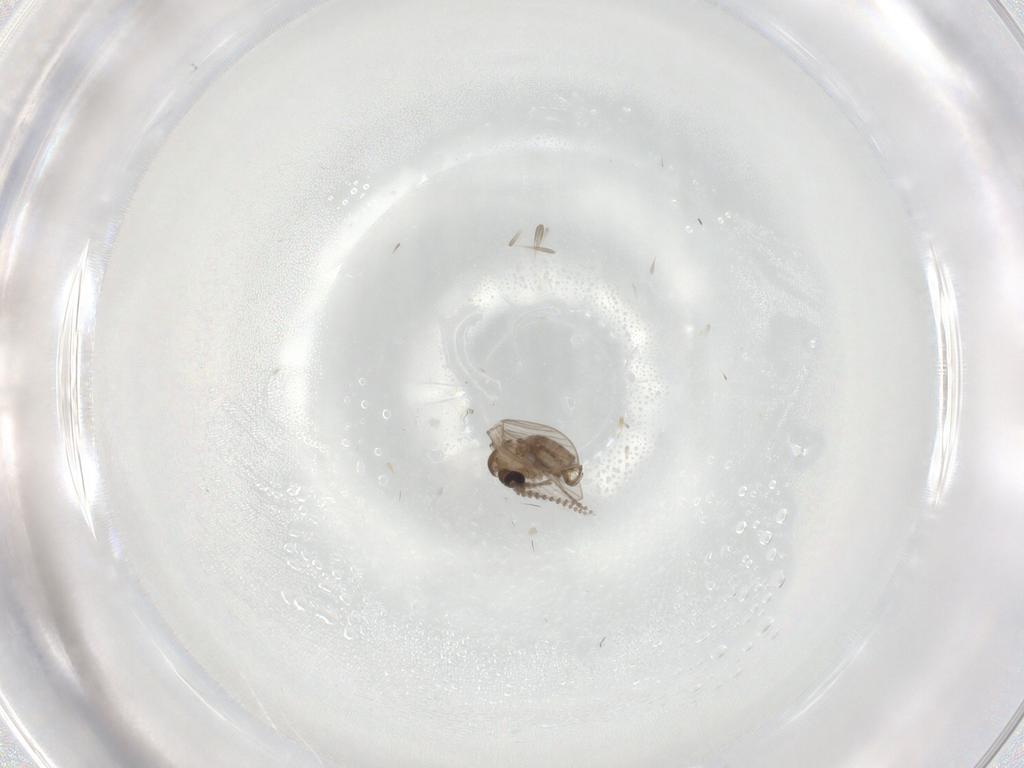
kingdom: Animalia
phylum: Arthropoda
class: Insecta
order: Diptera
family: Psychodidae
